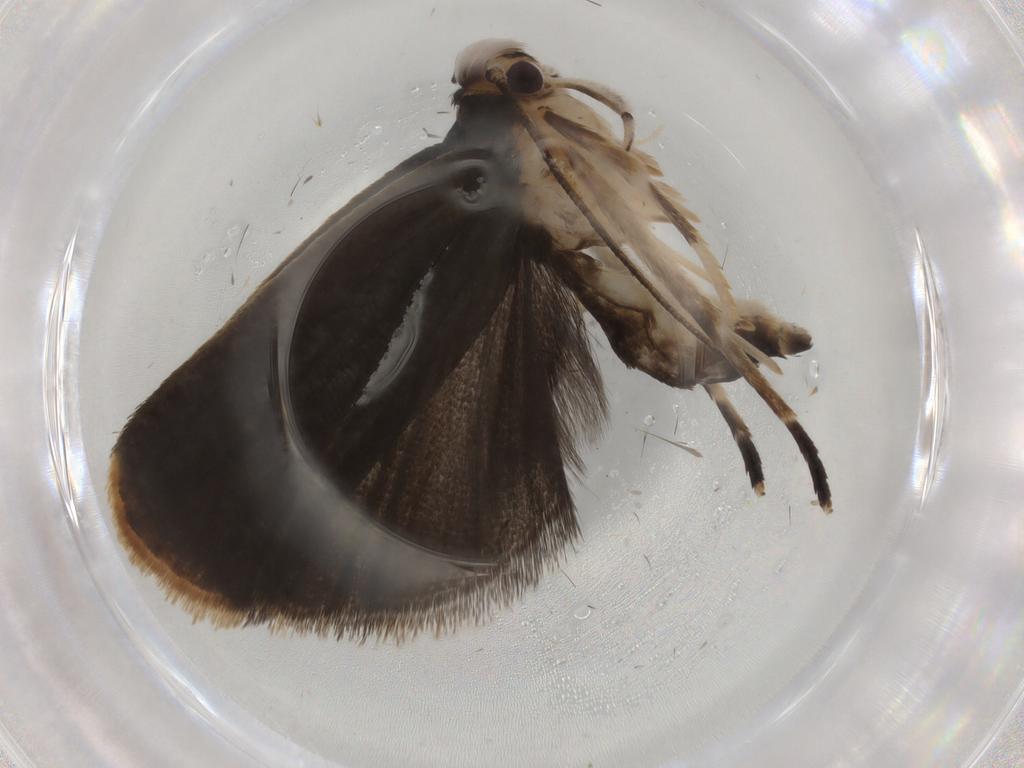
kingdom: Animalia
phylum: Arthropoda
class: Insecta
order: Lepidoptera
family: Gelechiidae
